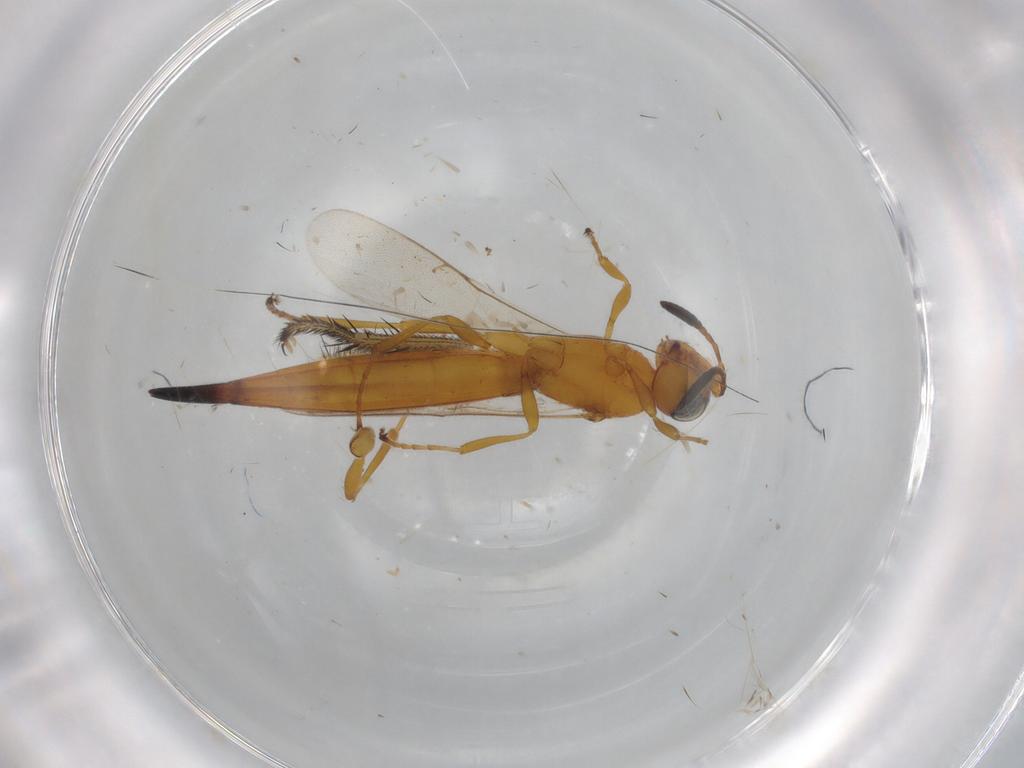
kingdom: Animalia
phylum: Arthropoda
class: Insecta
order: Hymenoptera
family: Scelionidae
